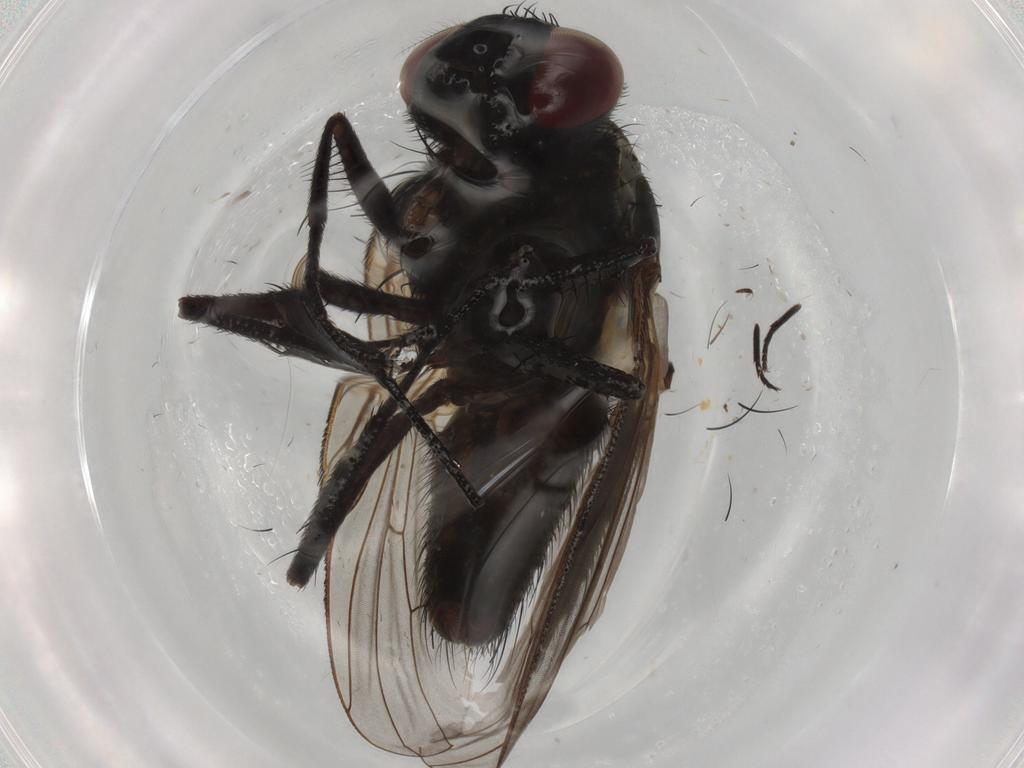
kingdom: Animalia
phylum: Arthropoda
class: Insecta
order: Diptera
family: Muscidae
